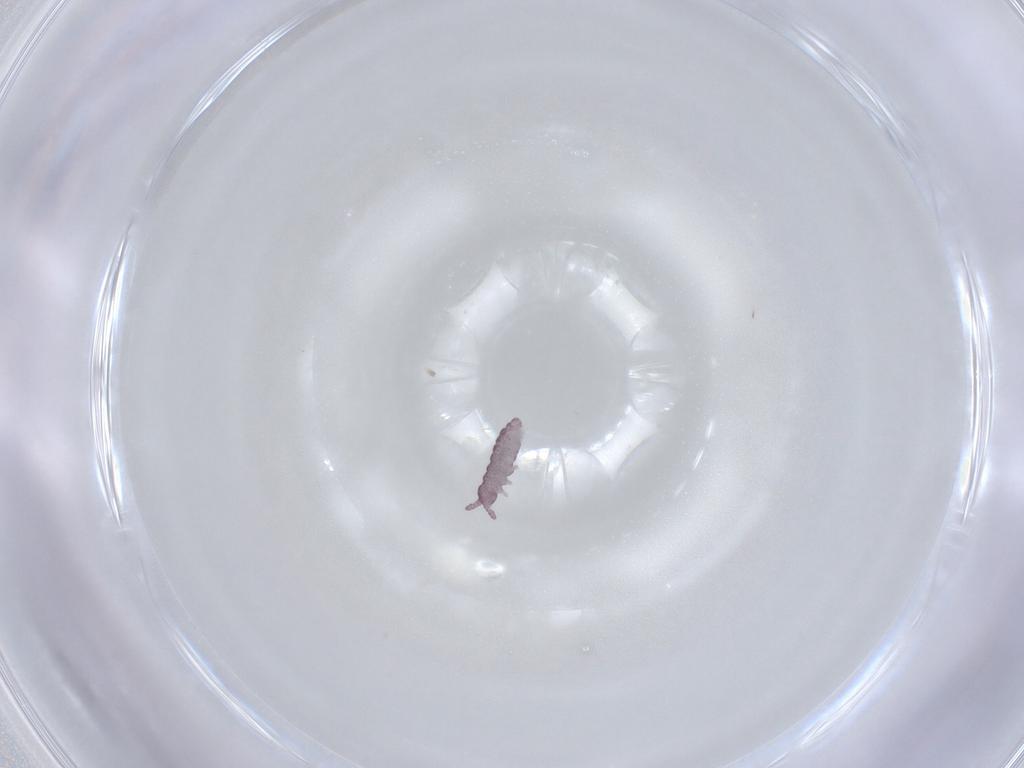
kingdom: Animalia
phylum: Arthropoda
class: Collembola
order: Poduromorpha
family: Hypogastruridae
